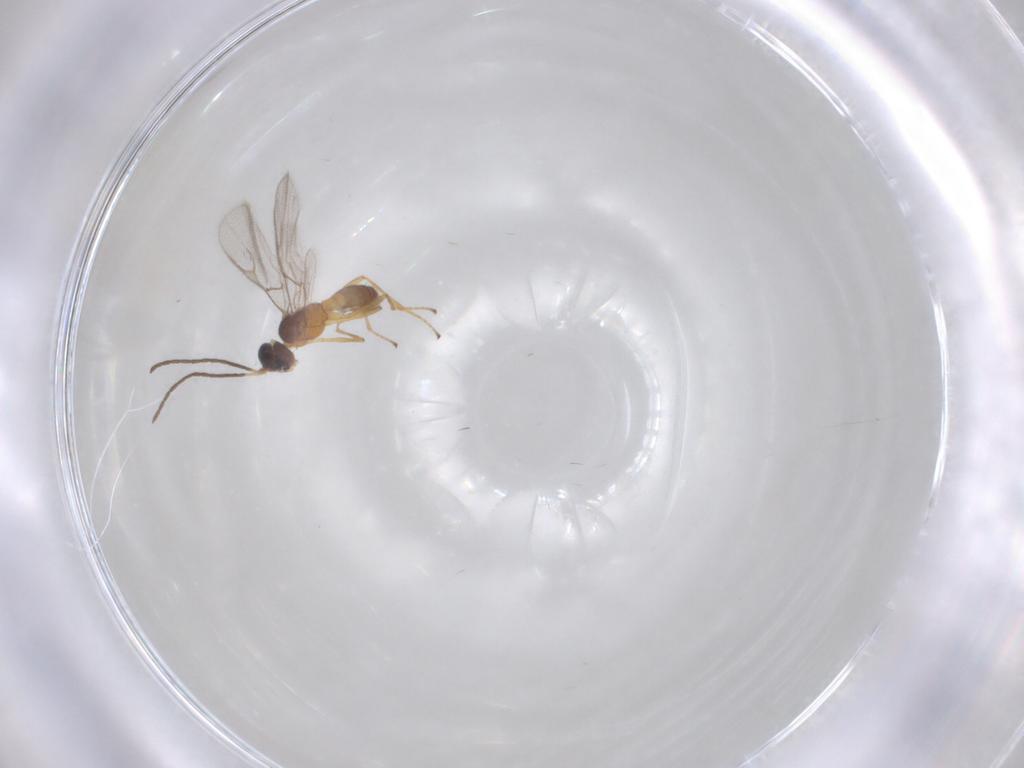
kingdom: Animalia
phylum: Arthropoda
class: Insecta
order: Hymenoptera
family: Braconidae
